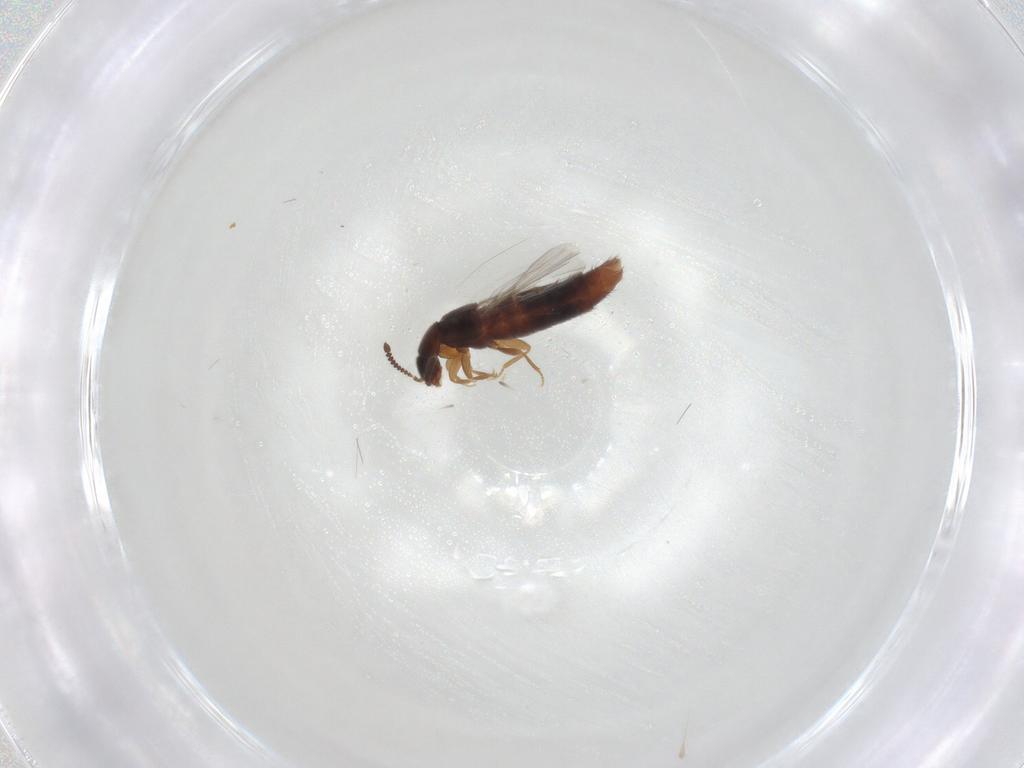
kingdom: Animalia
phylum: Arthropoda
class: Insecta
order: Coleoptera
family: Staphylinidae
